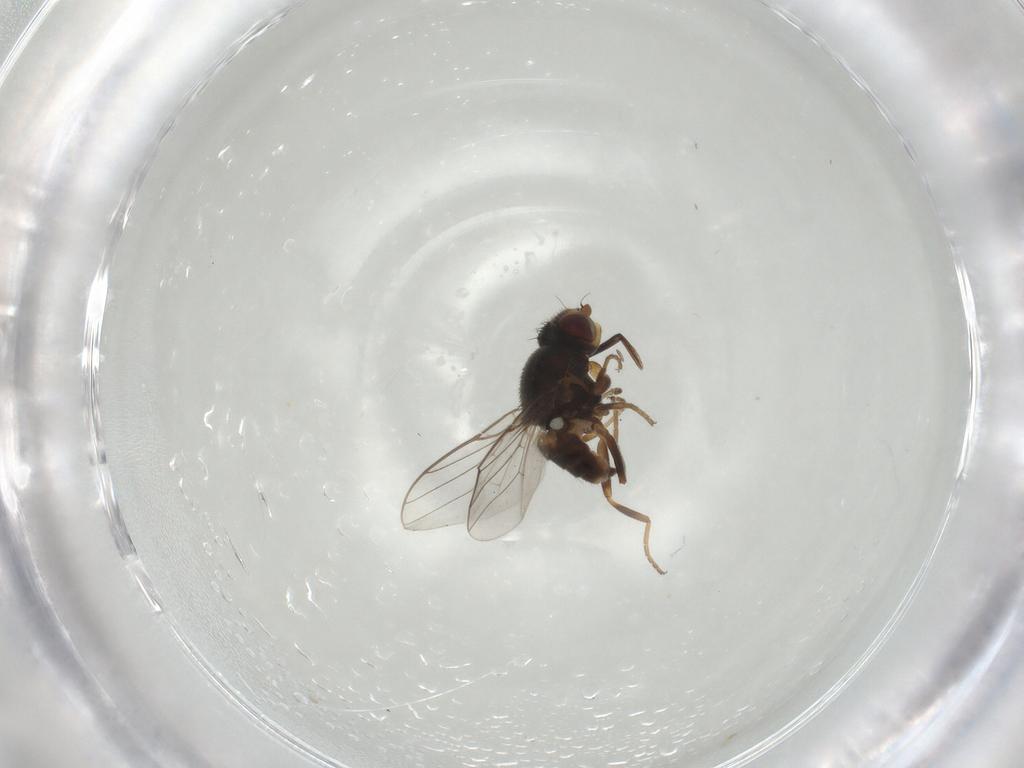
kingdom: Animalia
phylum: Arthropoda
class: Insecta
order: Diptera
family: Chloropidae
